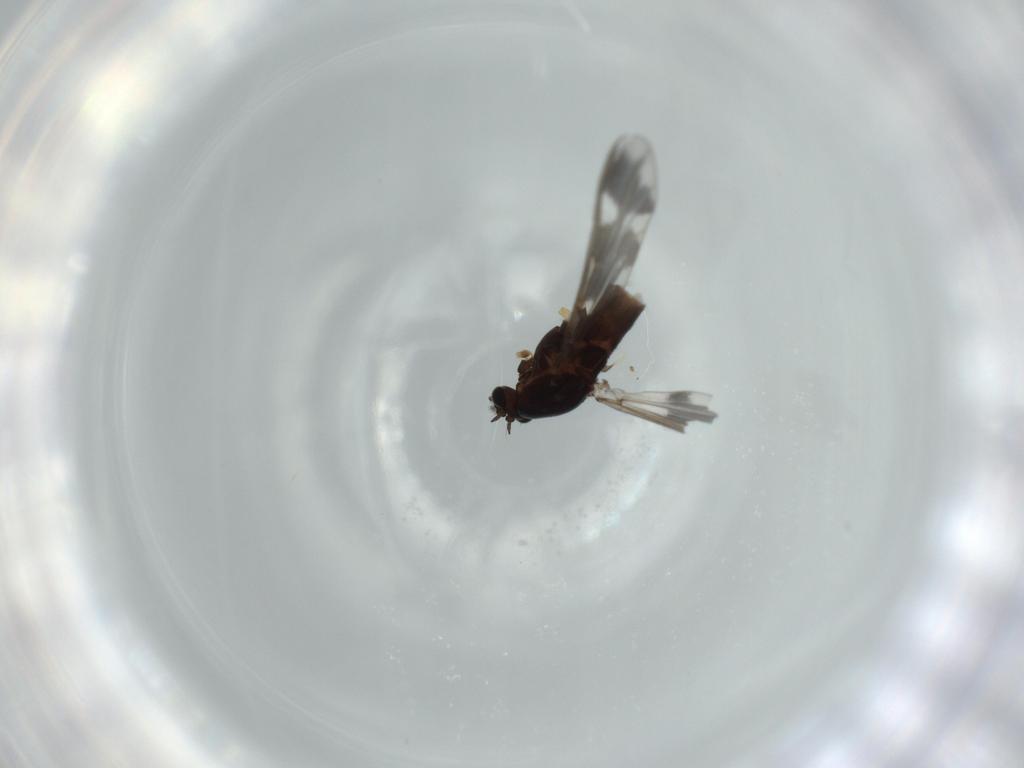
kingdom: Animalia
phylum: Arthropoda
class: Insecta
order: Diptera
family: Chironomidae
